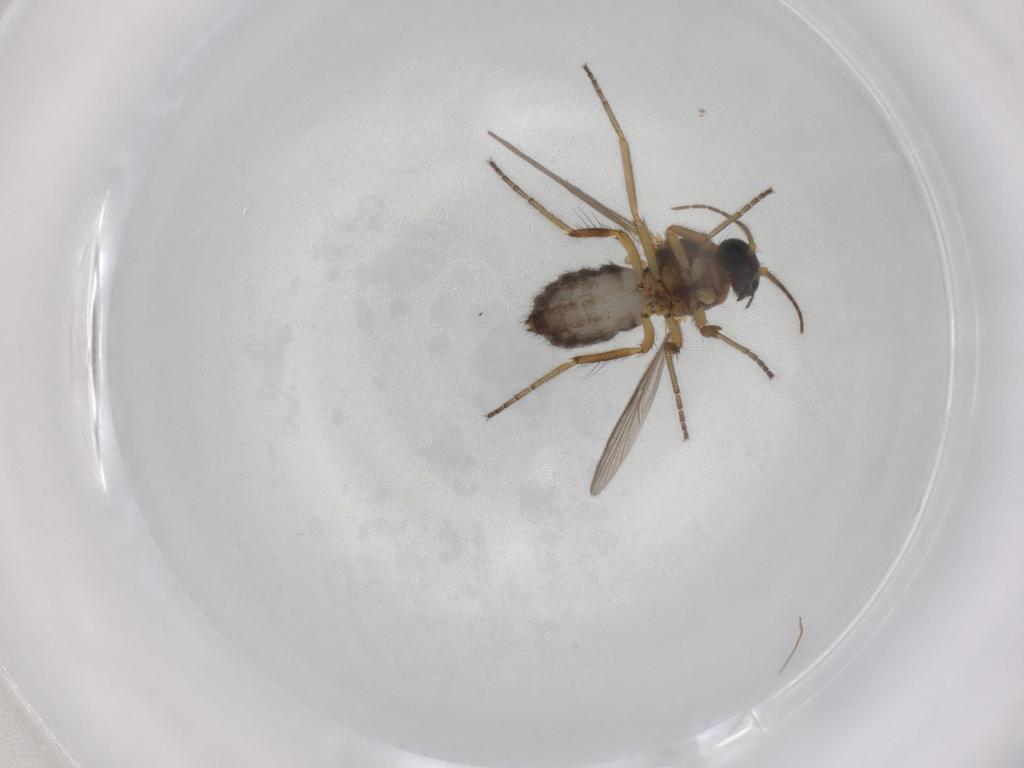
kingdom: Animalia
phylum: Arthropoda
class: Insecta
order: Diptera
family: Ceratopogonidae
